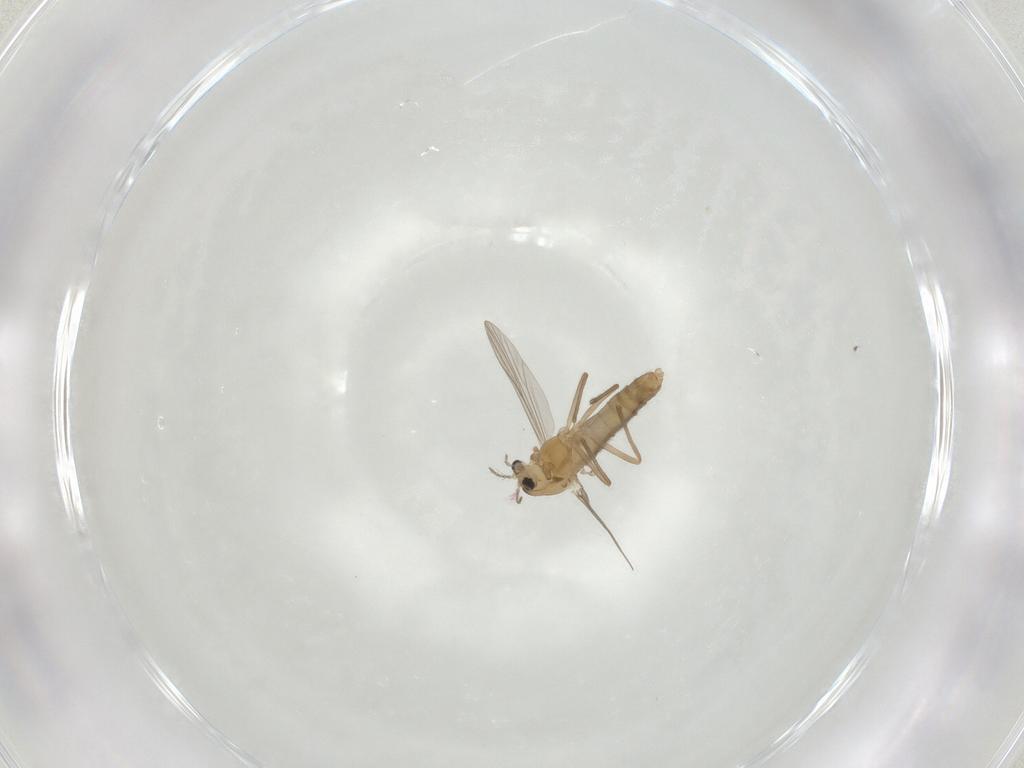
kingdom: Animalia
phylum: Arthropoda
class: Insecta
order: Diptera
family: Chironomidae
